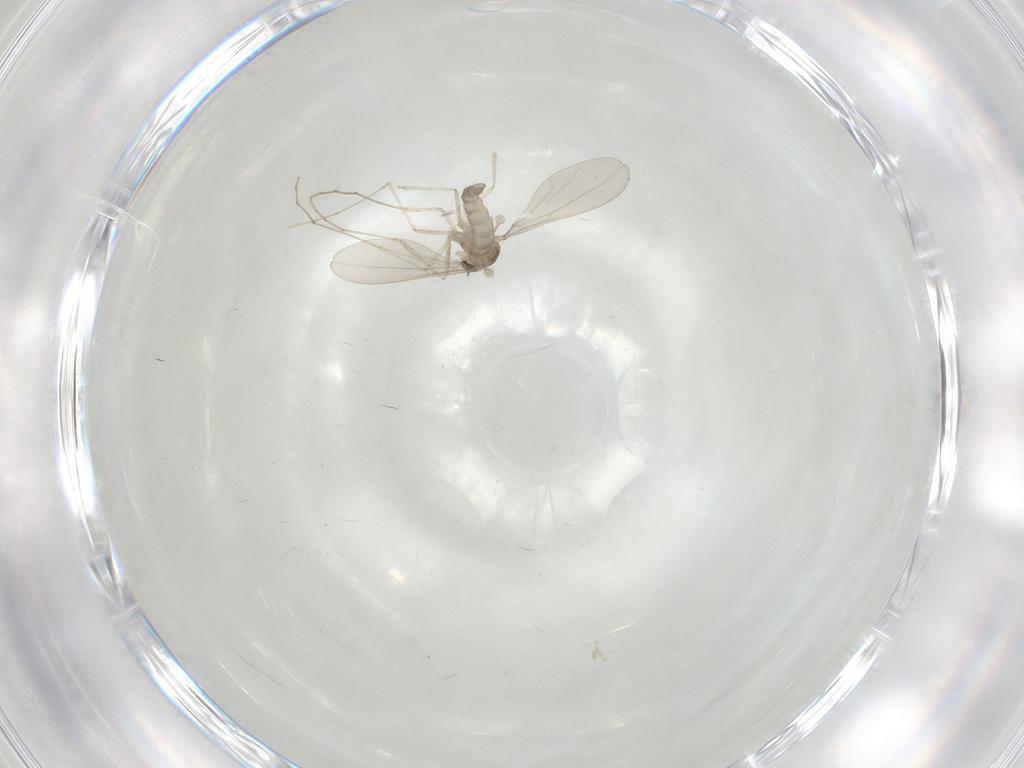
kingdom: Animalia
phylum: Arthropoda
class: Insecta
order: Diptera
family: Cecidomyiidae
